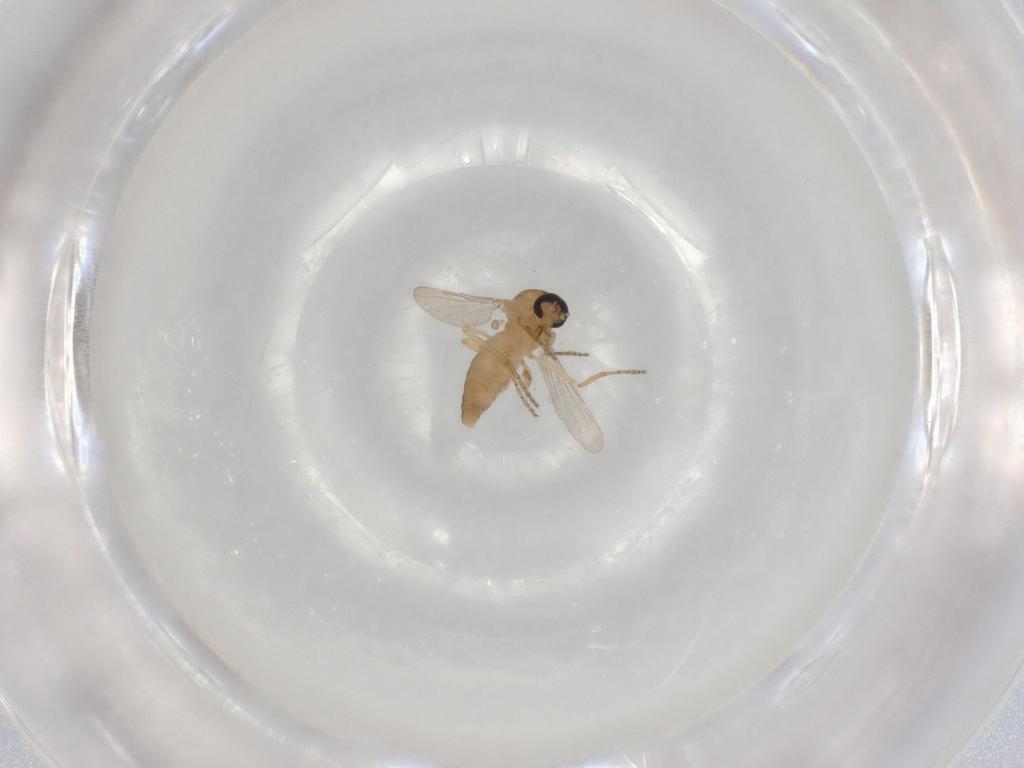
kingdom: Animalia
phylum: Arthropoda
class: Insecta
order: Diptera
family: Ceratopogonidae
